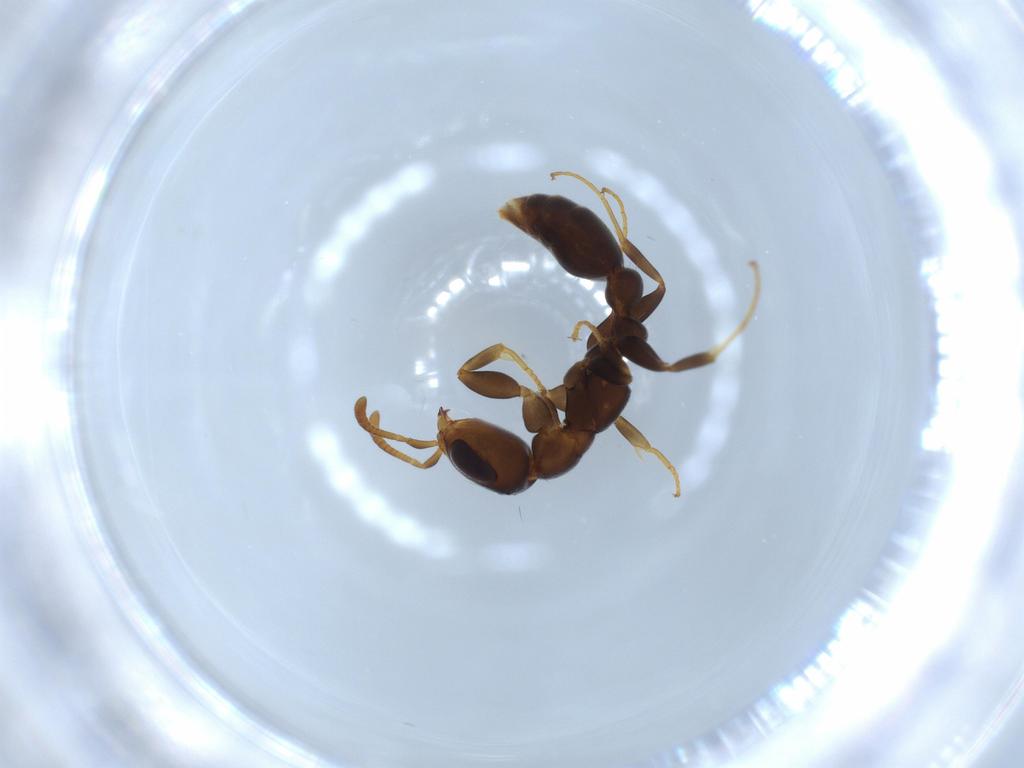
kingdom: Animalia
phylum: Arthropoda
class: Insecta
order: Hymenoptera
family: Formicidae
